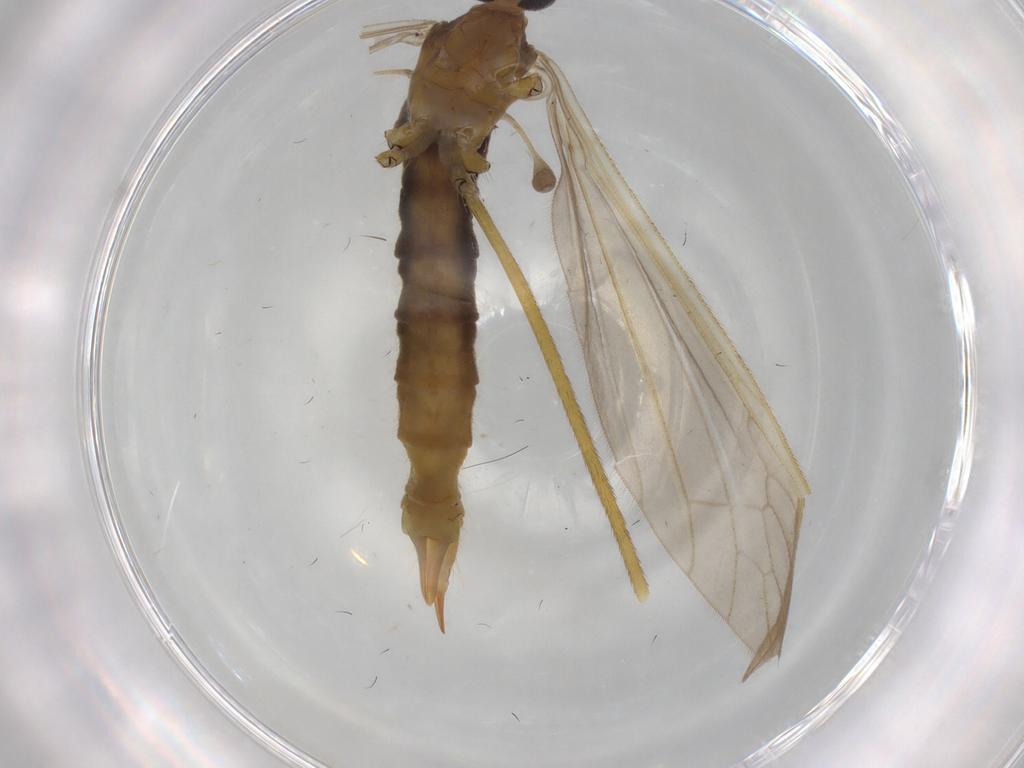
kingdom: Animalia
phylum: Arthropoda
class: Insecta
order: Diptera
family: Limoniidae
